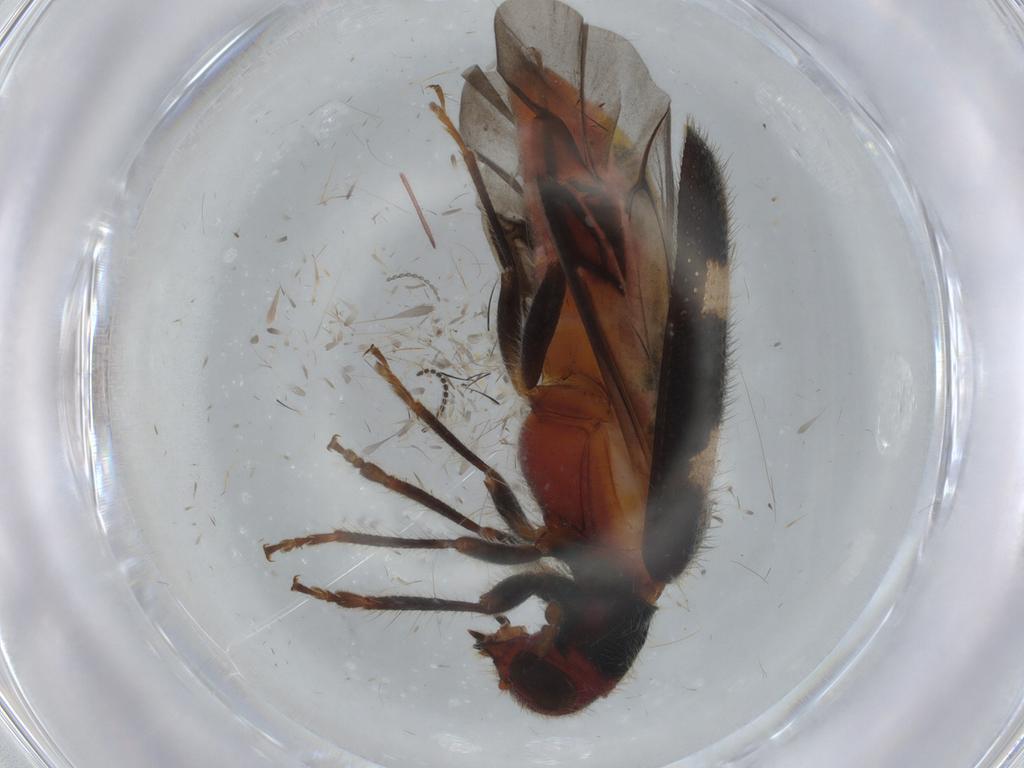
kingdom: Animalia
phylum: Arthropoda
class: Insecta
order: Coleoptera
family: Cleridae
